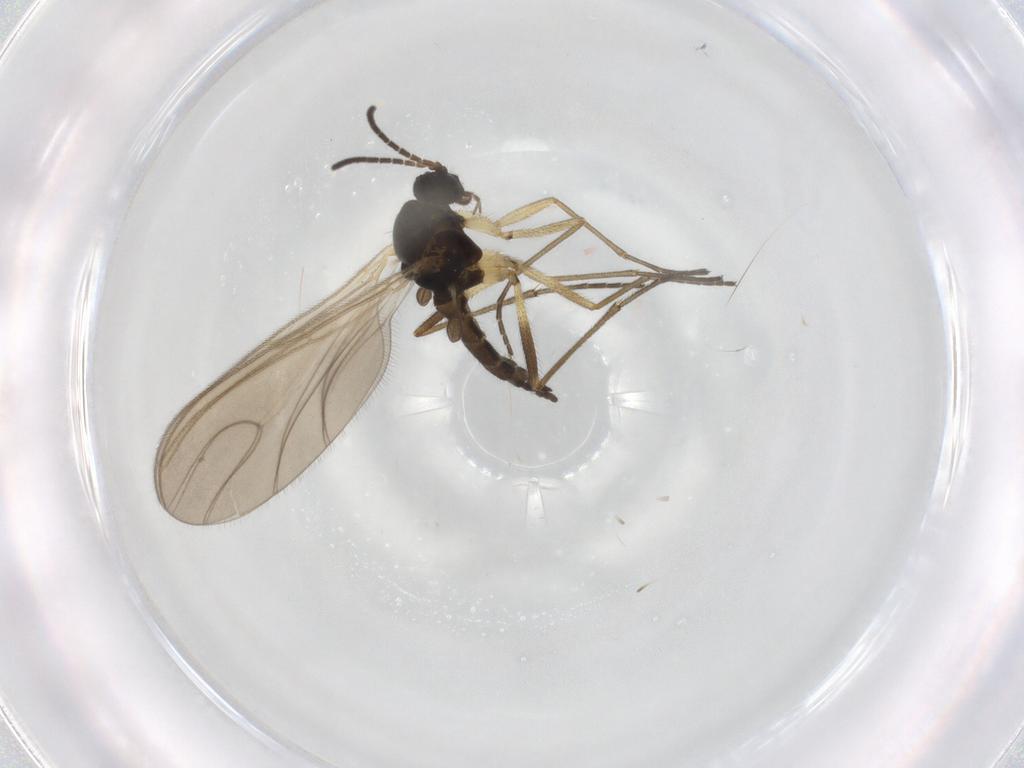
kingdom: Animalia
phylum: Arthropoda
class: Insecta
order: Diptera
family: Sciaridae
